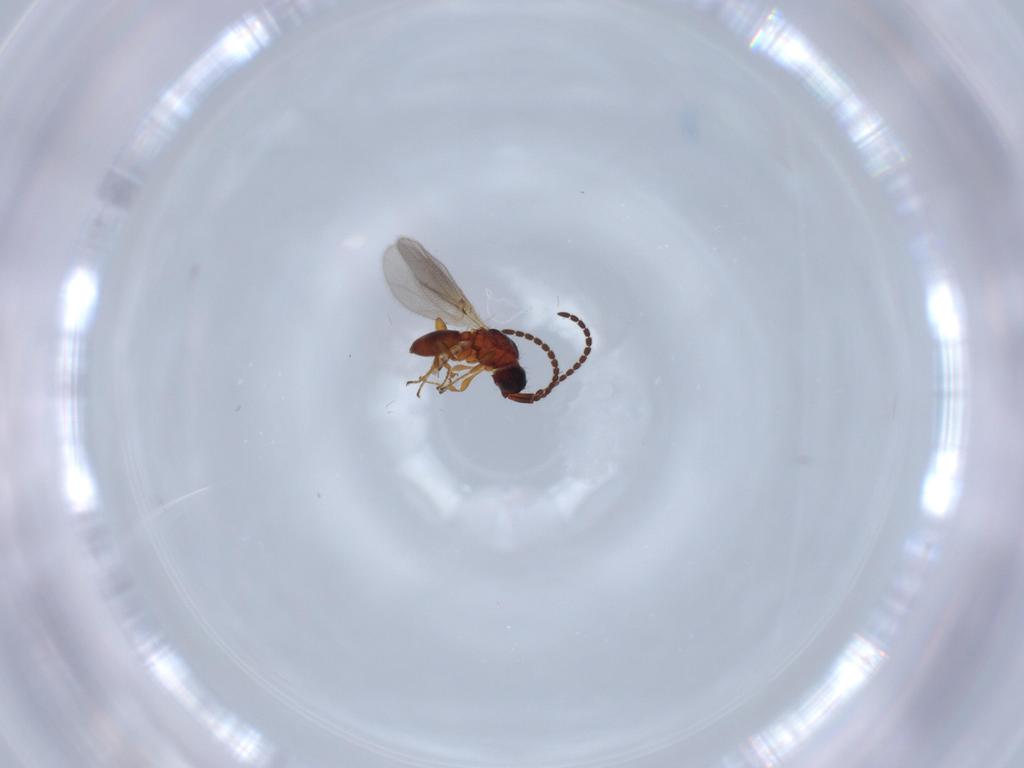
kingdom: Animalia
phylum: Arthropoda
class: Insecta
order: Hymenoptera
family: Diapriidae
